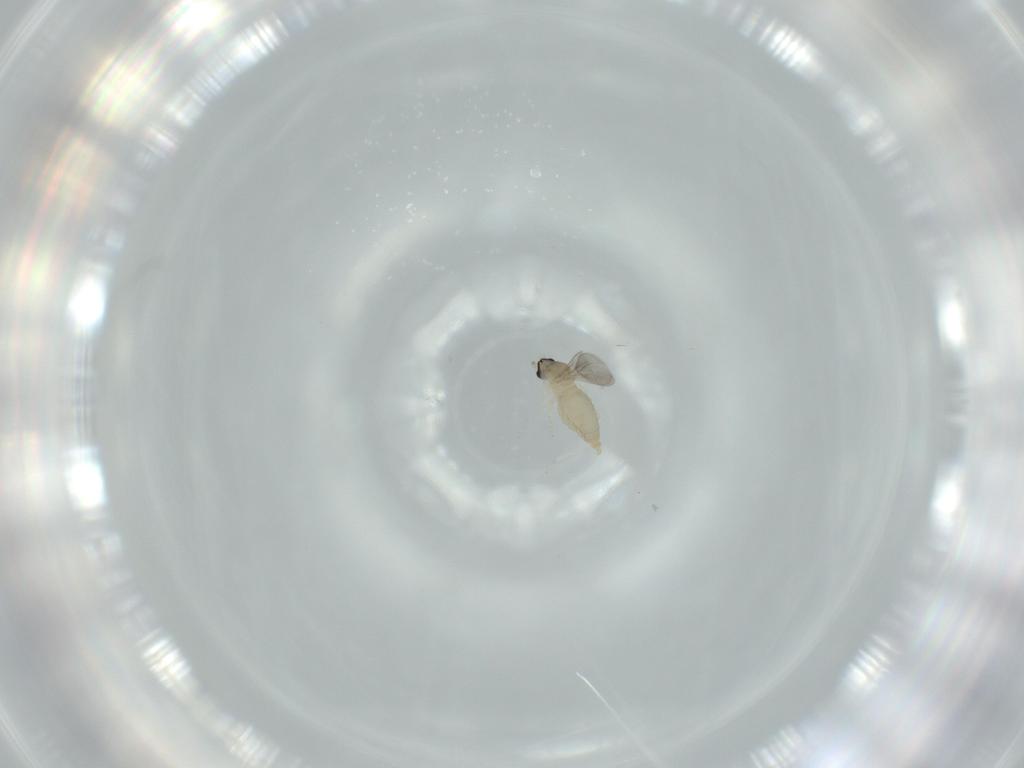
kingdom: Animalia
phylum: Arthropoda
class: Insecta
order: Diptera
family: Cecidomyiidae
